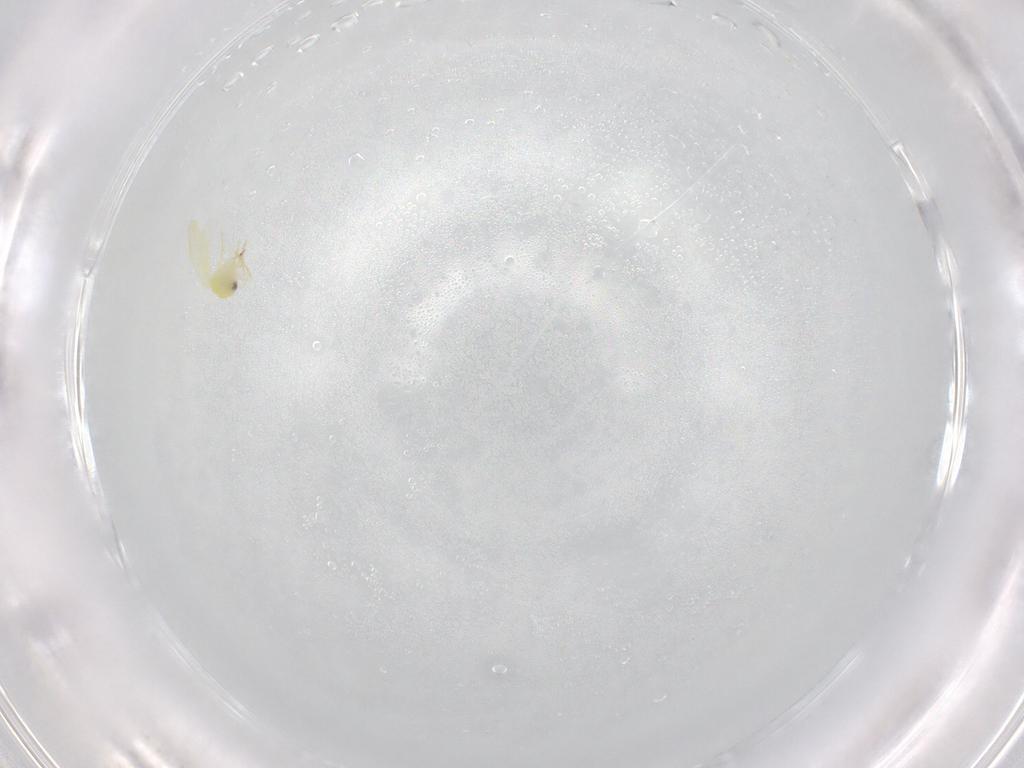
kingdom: Animalia
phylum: Arthropoda
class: Insecta
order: Hemiptera
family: Aleyrodidae
